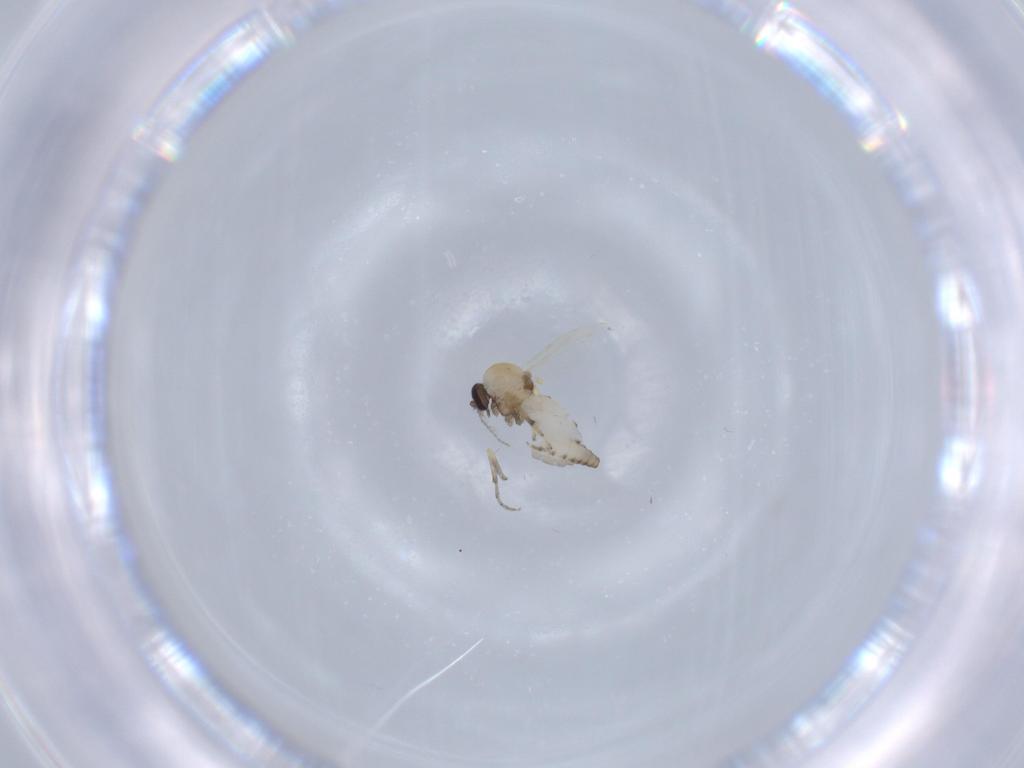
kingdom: Animalia
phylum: Arthropoda
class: Insecta
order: Diptera
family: Ceratopogonidae
